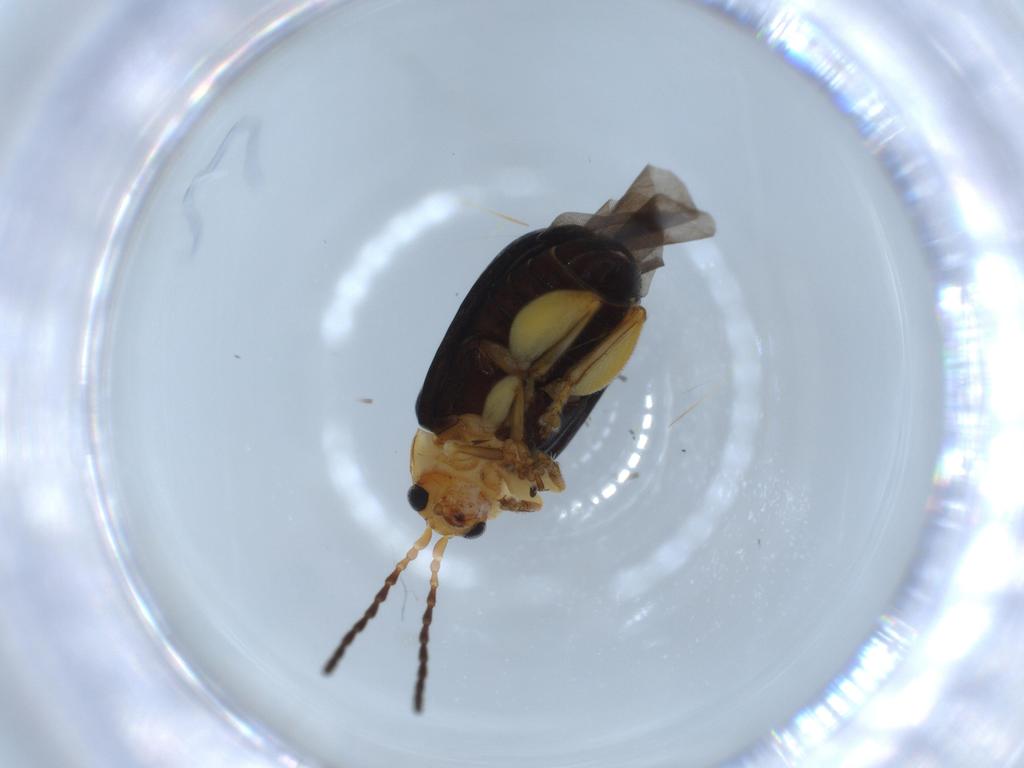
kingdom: Animalia
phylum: Arthropoda
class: Insecta
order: Coleoptera
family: Chrysomelidae
